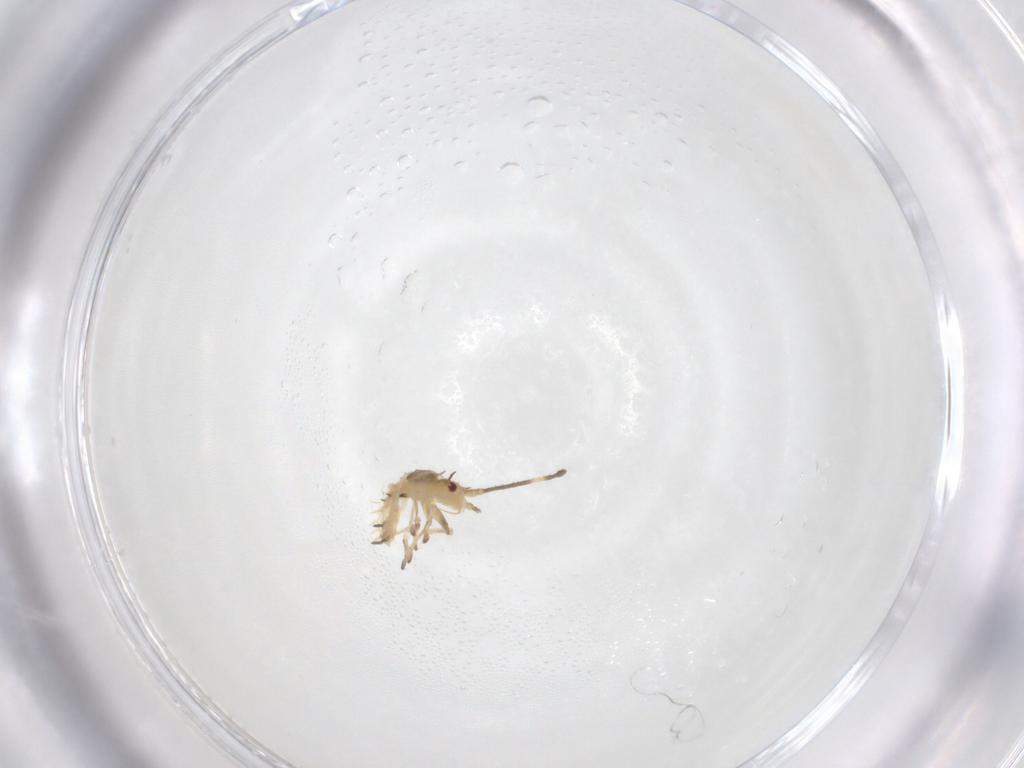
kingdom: Animalia
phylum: Arthropoda
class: Insecta
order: Hemiptera
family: Tingidae
